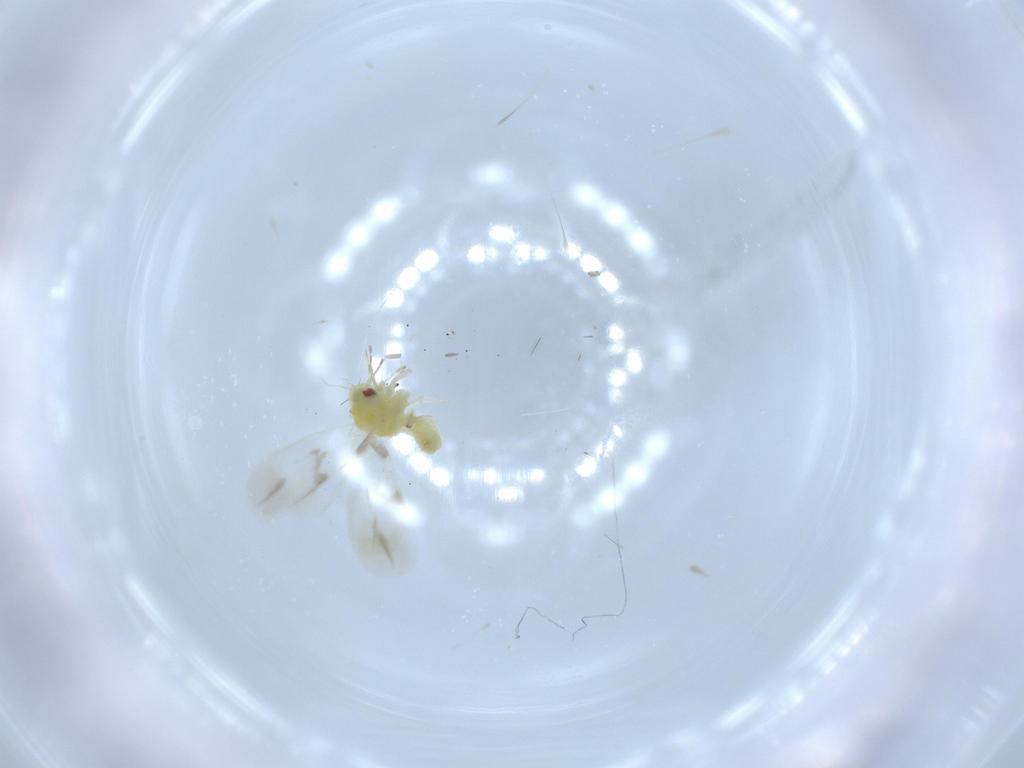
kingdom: Animalia
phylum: Arthropoda
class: Insecta
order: Hemiptera
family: Aleyrodidae
